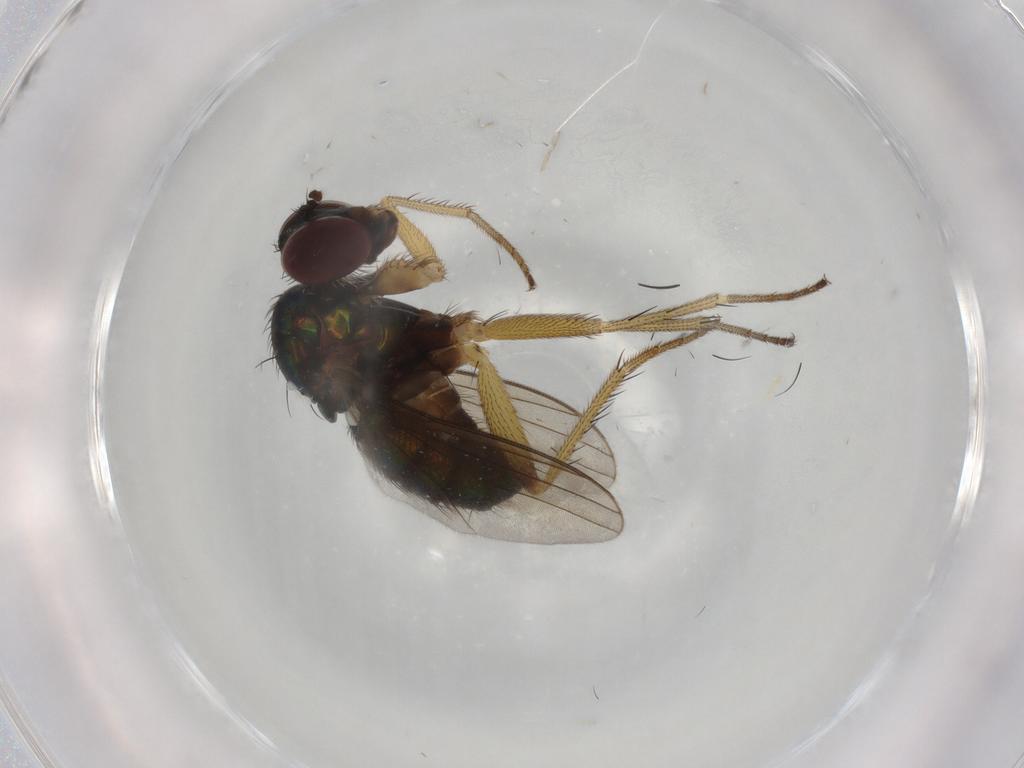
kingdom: Animalia
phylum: Arthropoda
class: Insecta
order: Diptera
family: Dolichopodidae
